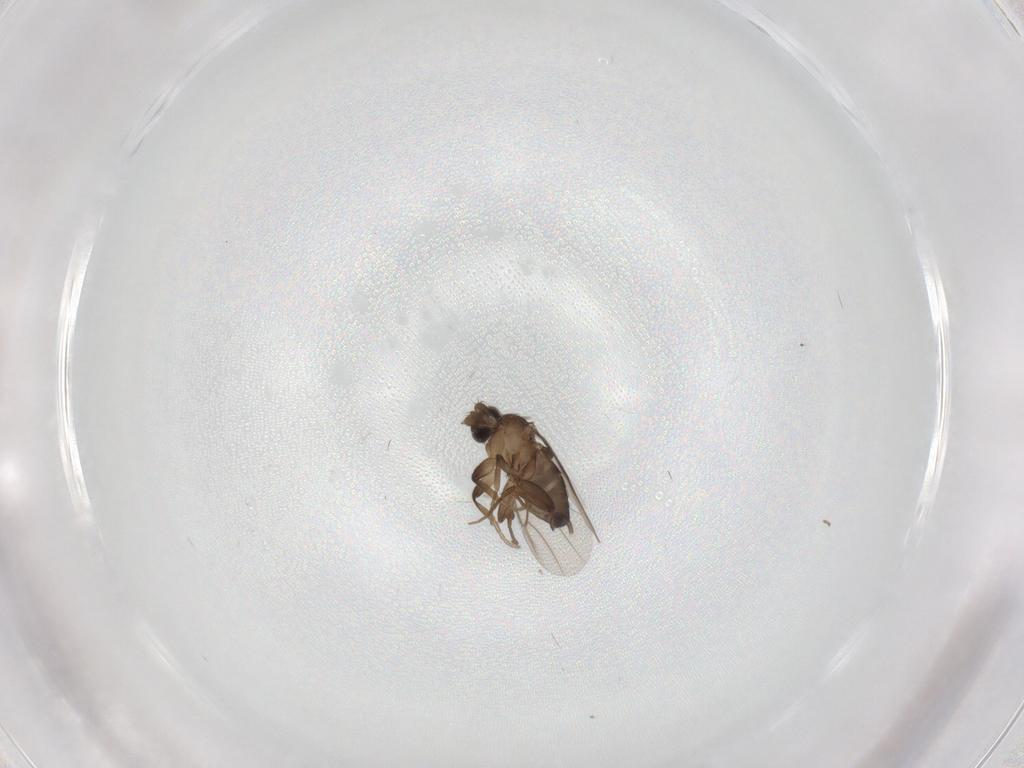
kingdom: Animalia
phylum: Arthropoda
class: Insecta
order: Diptera
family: Phoridae
